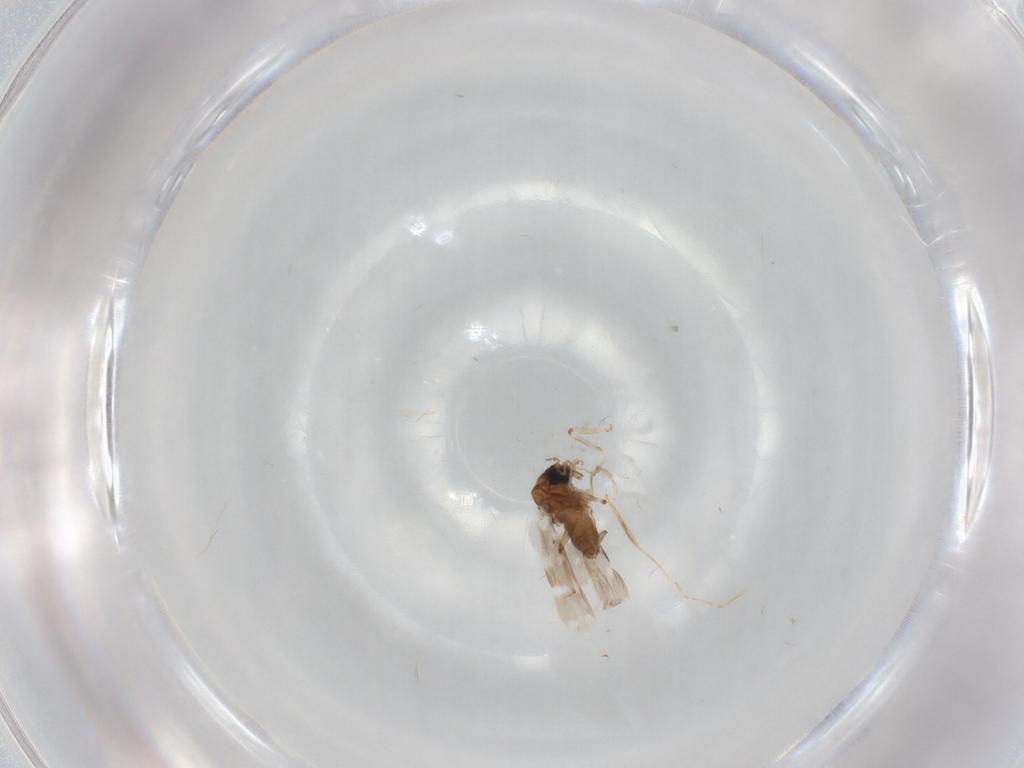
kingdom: Animalia
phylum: Arthropoda
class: Insecta
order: Diptera
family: Ceratopogonidae
